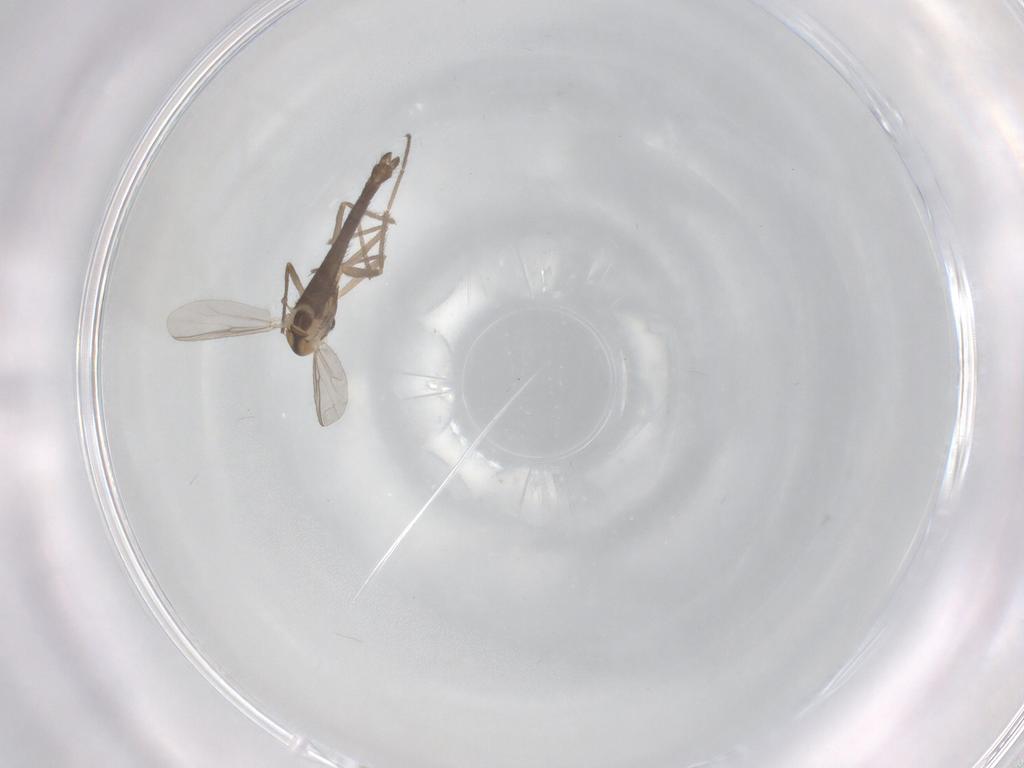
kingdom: Animalia
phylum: Arthropoda
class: Insecta
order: Diptera
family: Chironomidae
